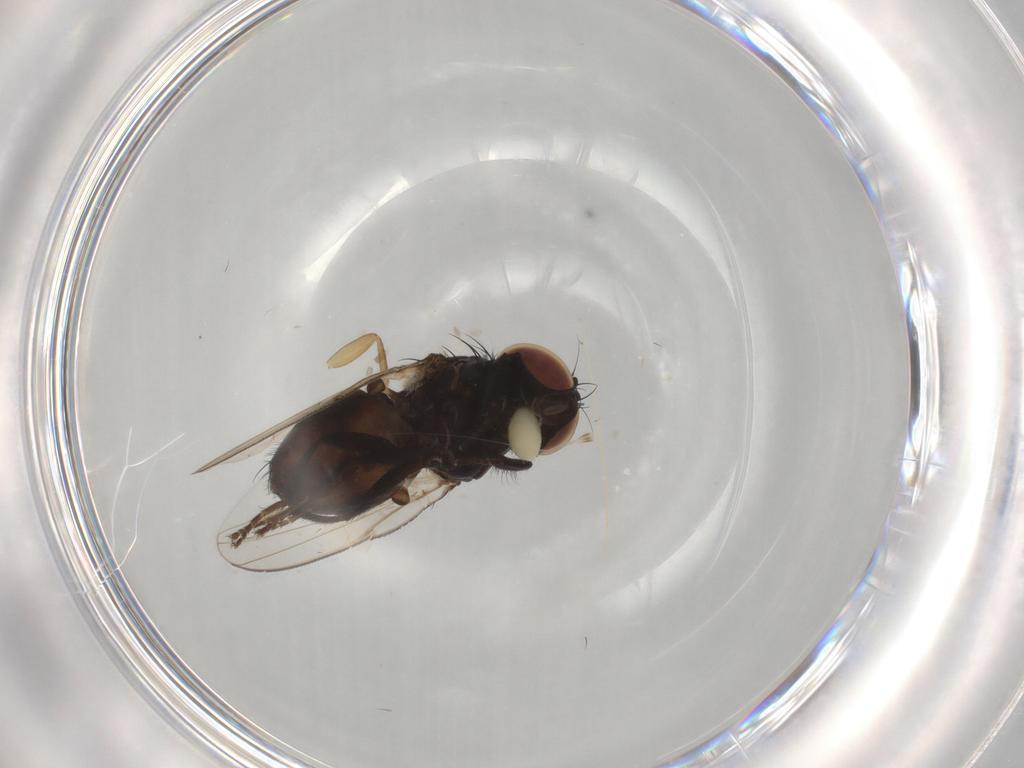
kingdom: Animalia
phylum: Arthropoda
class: Insecta
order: Diptera
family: Milichiidae
